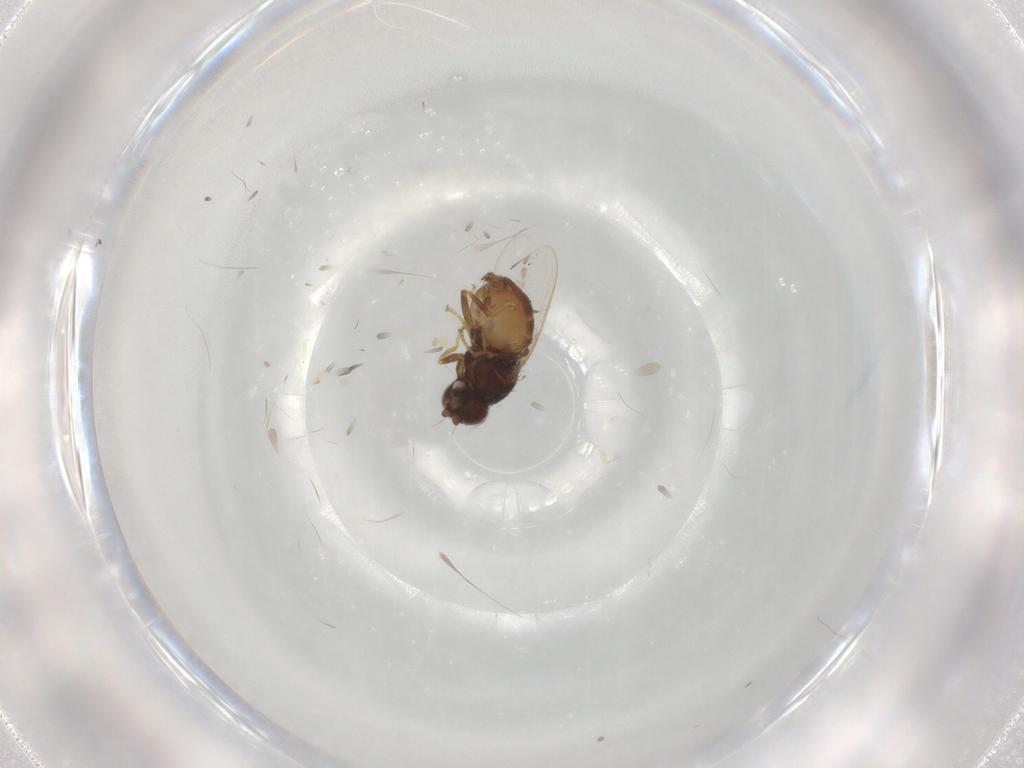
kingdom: Animalia
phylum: Arthropoda
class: Insecta
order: Diptera
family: Chloropidae
